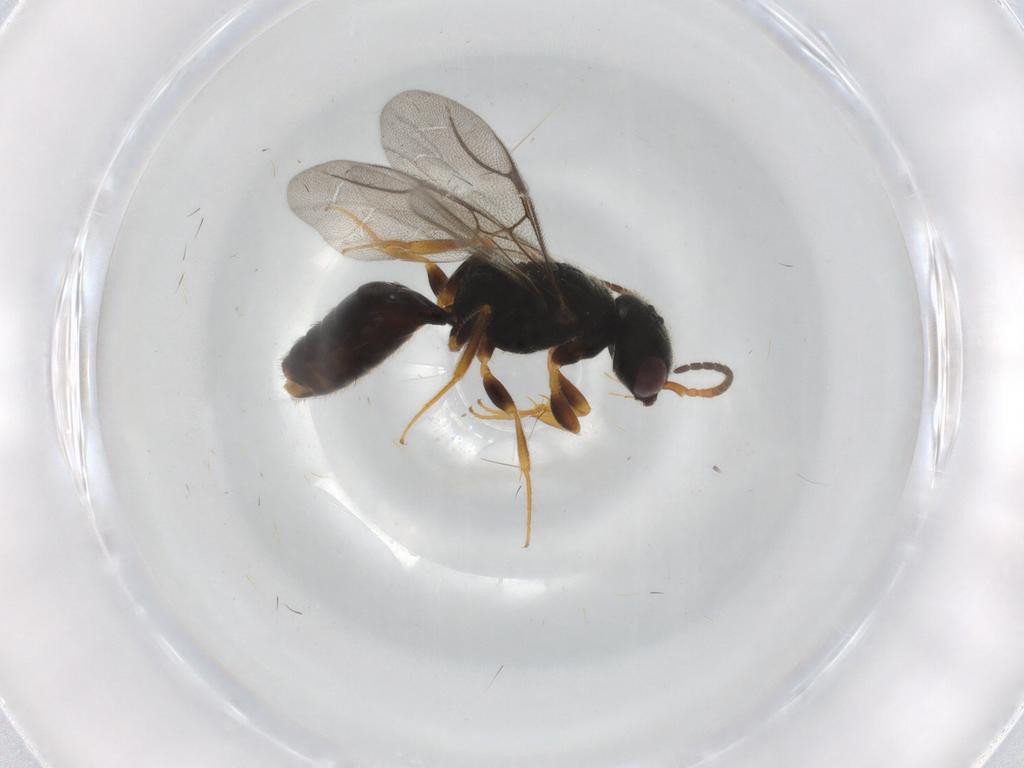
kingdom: Animalia
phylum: Arthropoda
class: Insecta
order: Hymenoptera
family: Bethylidae
